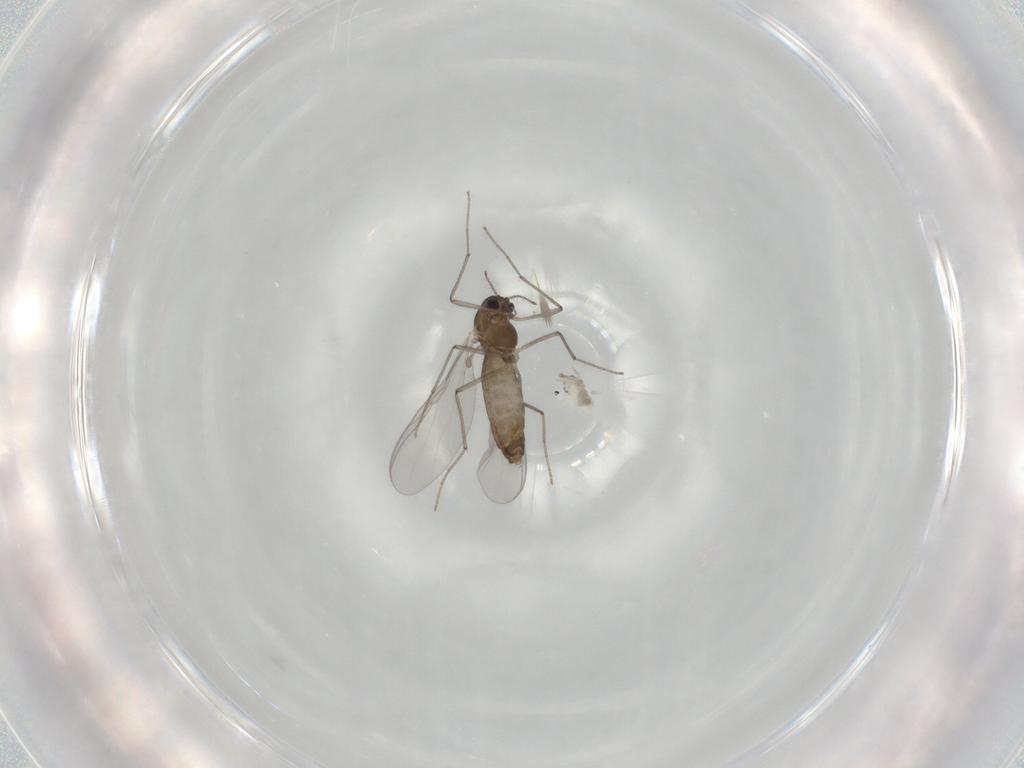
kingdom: Animalia
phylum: Arthropoda
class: Insecta
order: Diptera
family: Chironomidae
